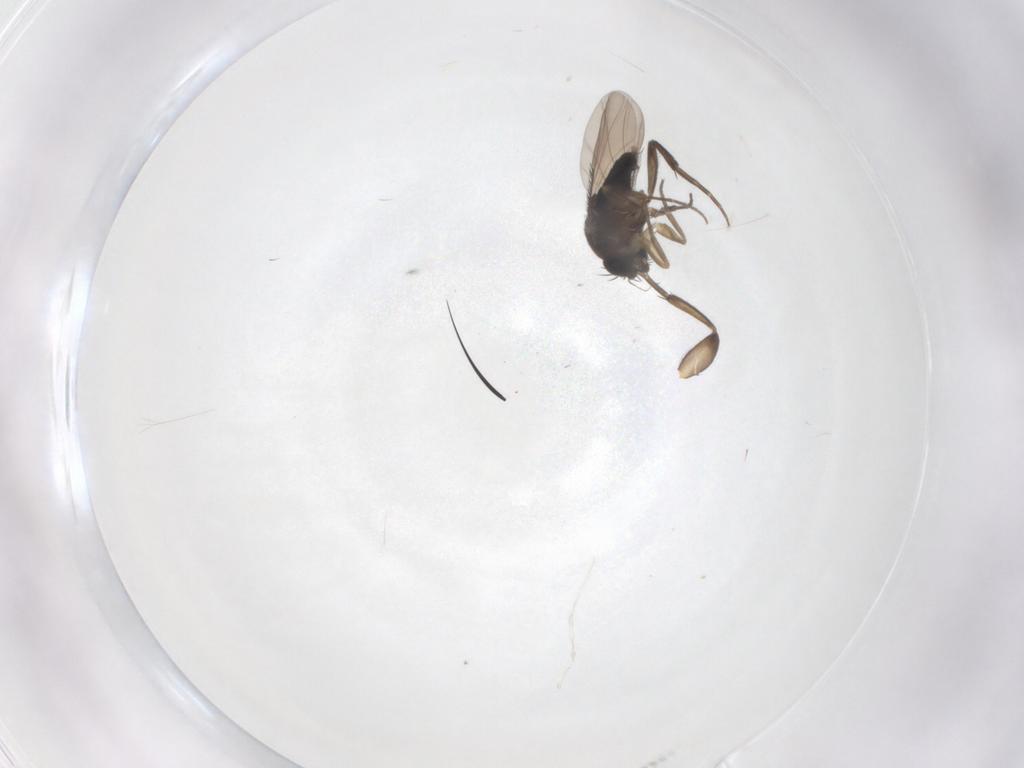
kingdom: Animalia
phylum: Arthropoda
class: Insecta
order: Diptera
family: Phoridae
